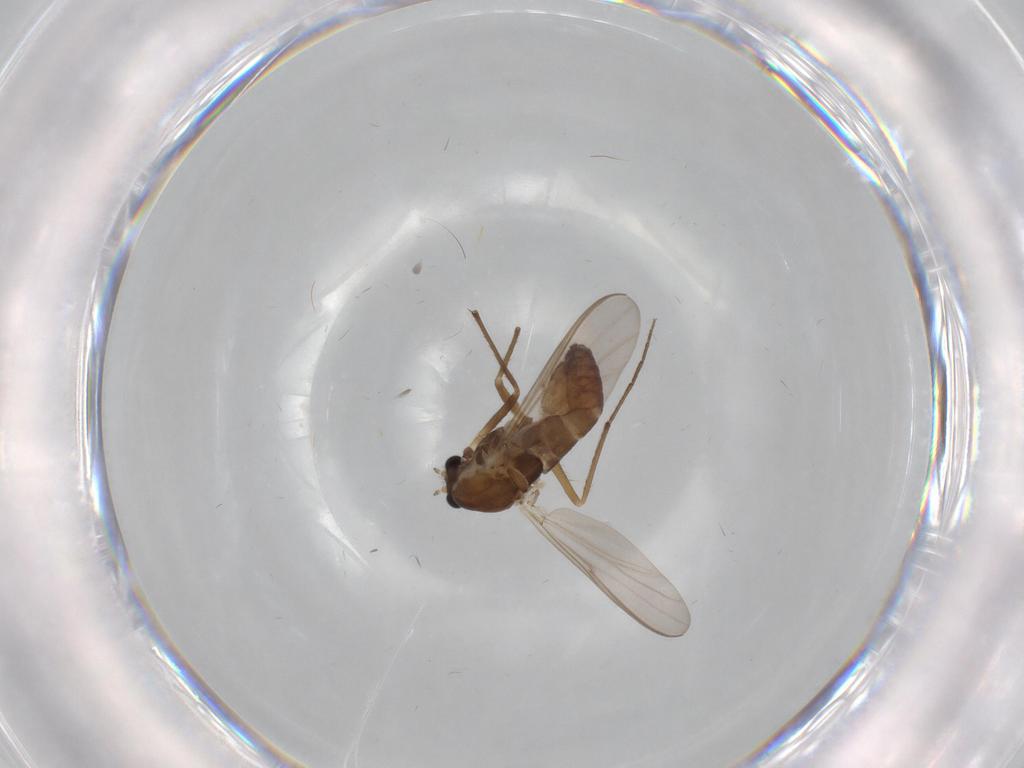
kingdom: Animalia
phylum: Arthropoda
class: Insecta
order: Diptera
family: Chironomidae
